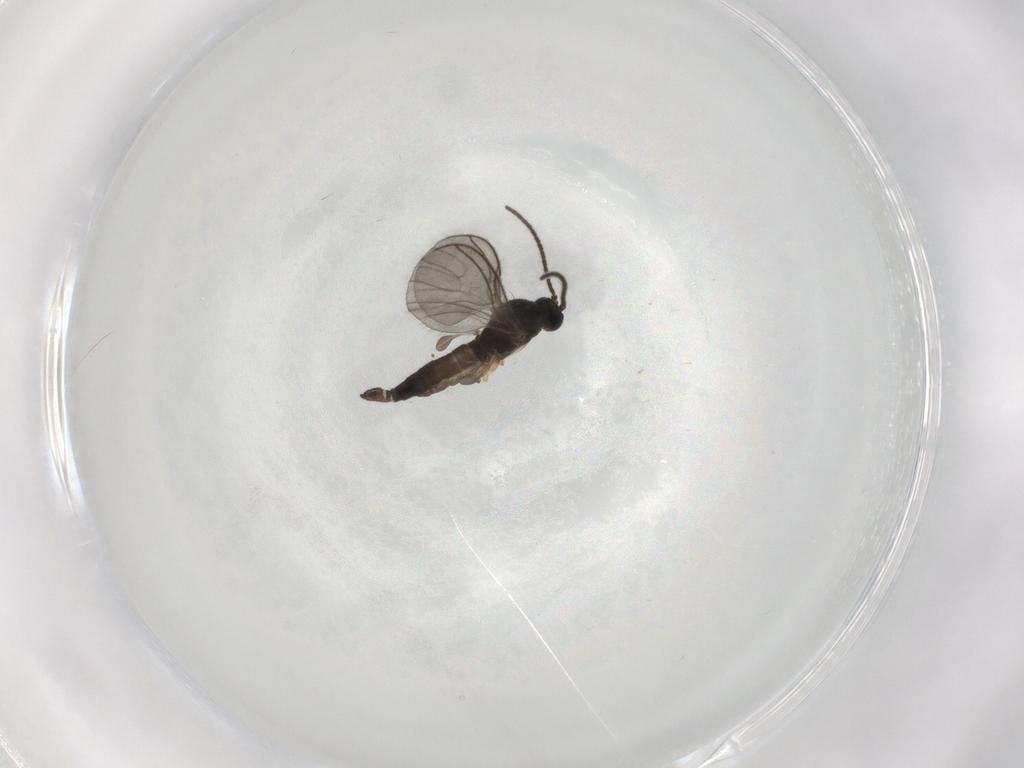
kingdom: Animalia
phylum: Arthropoda
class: Insecta
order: Diptera
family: Sciaridae
